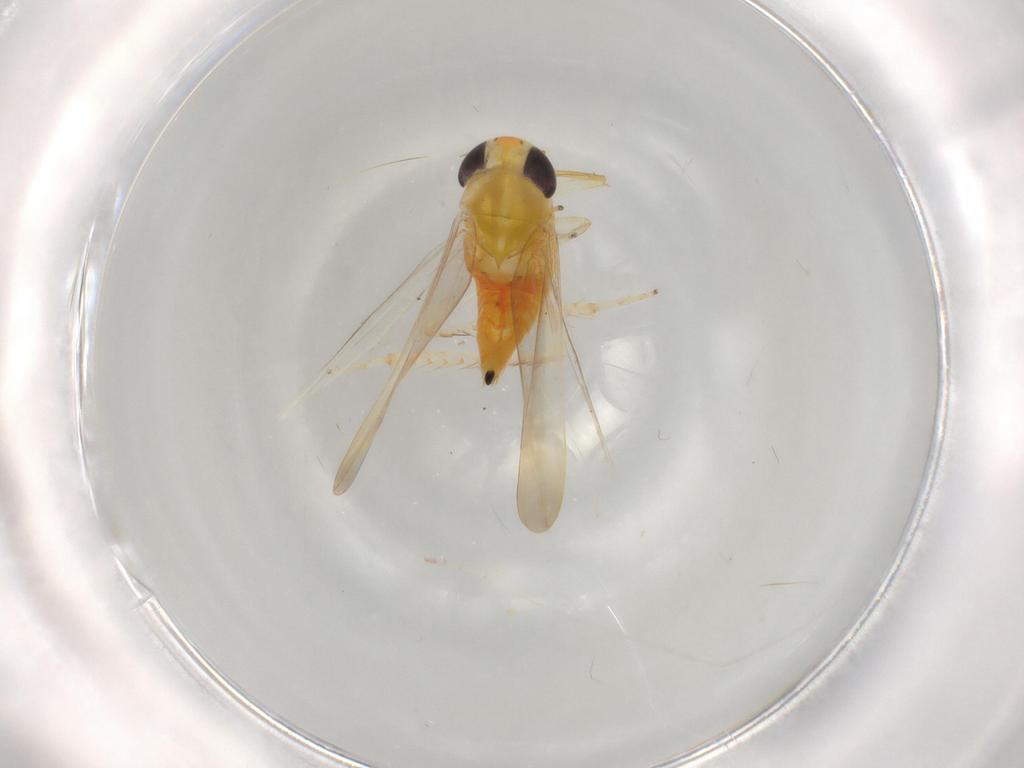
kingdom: Animalia
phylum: Arthropoda
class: Insecta
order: Hemiptera
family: Cicadellidae
